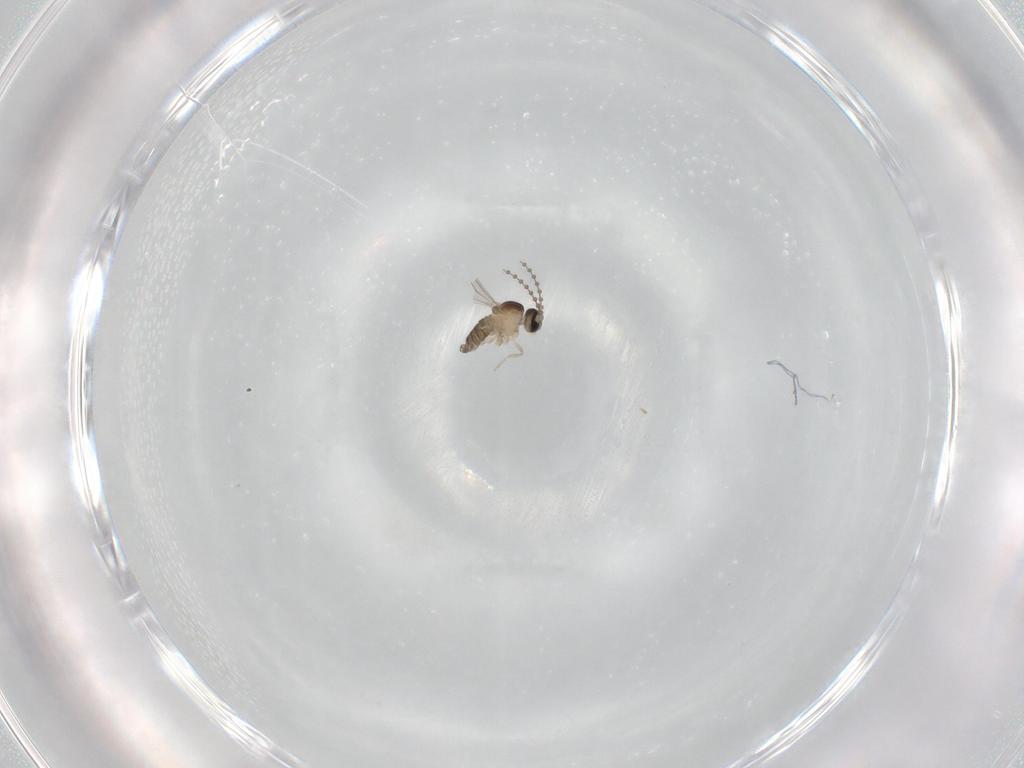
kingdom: Animalia
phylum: Arthropoda
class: Insecta
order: Diptera
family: Cecidomyiidae
